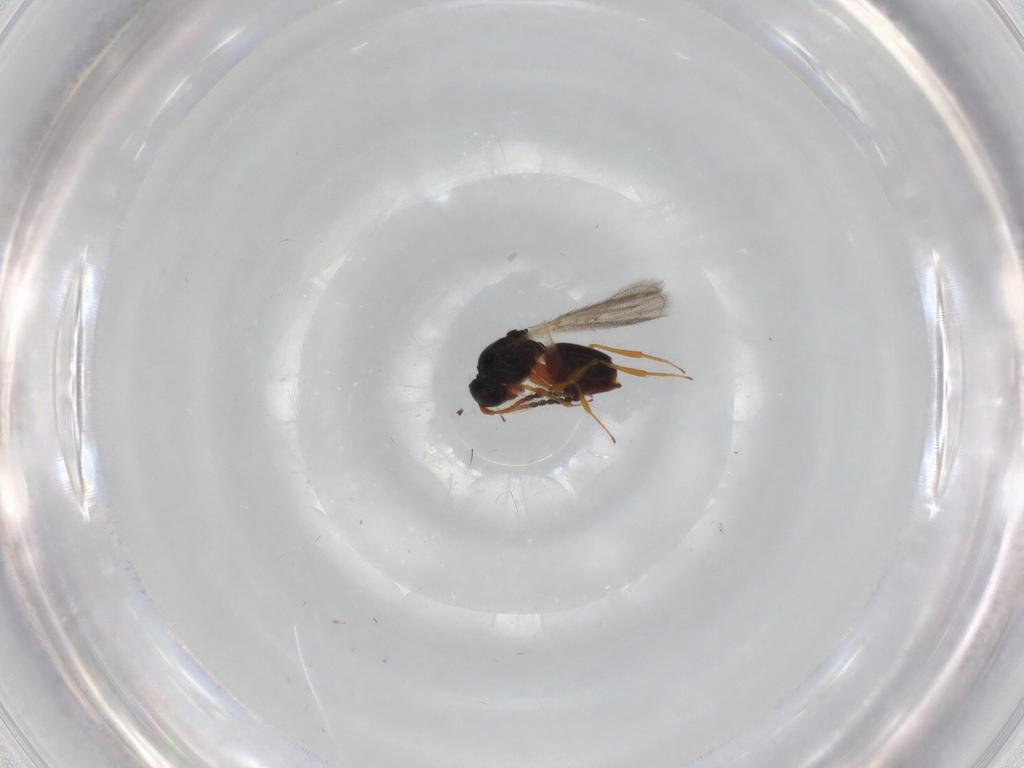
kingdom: Animalia
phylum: Arthropoda
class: Insecta
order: Hymenoptera
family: Figitidae
